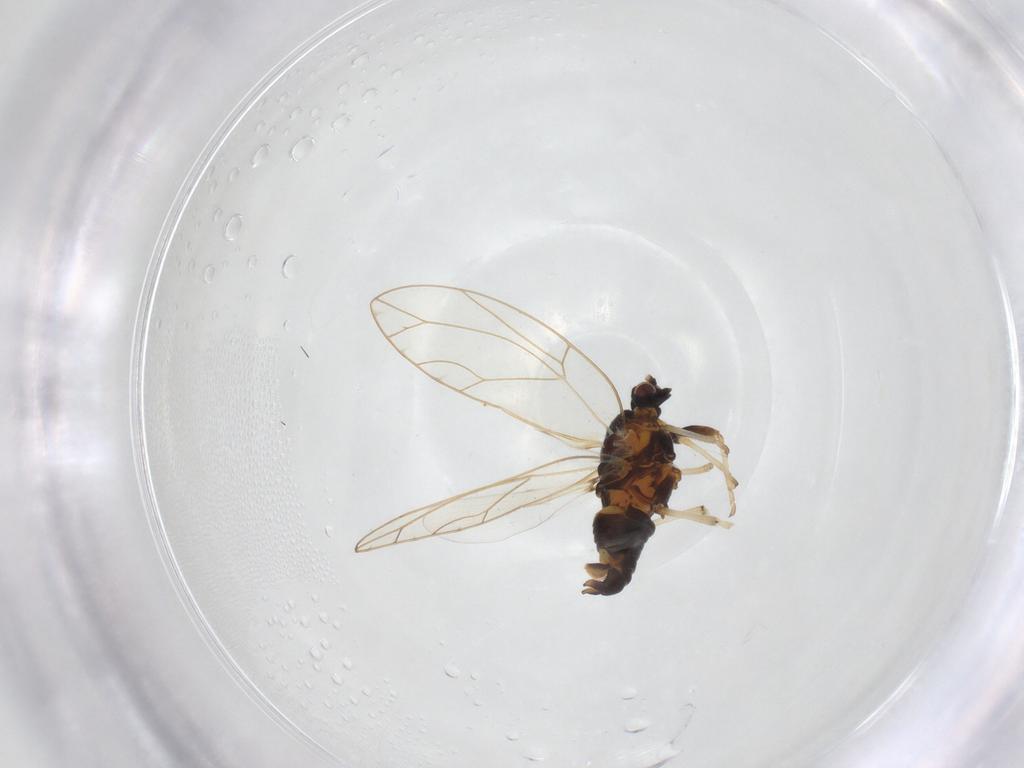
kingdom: Animalia
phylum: Arthropoda
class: Insecta
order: Hemiptera
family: Triozidae
